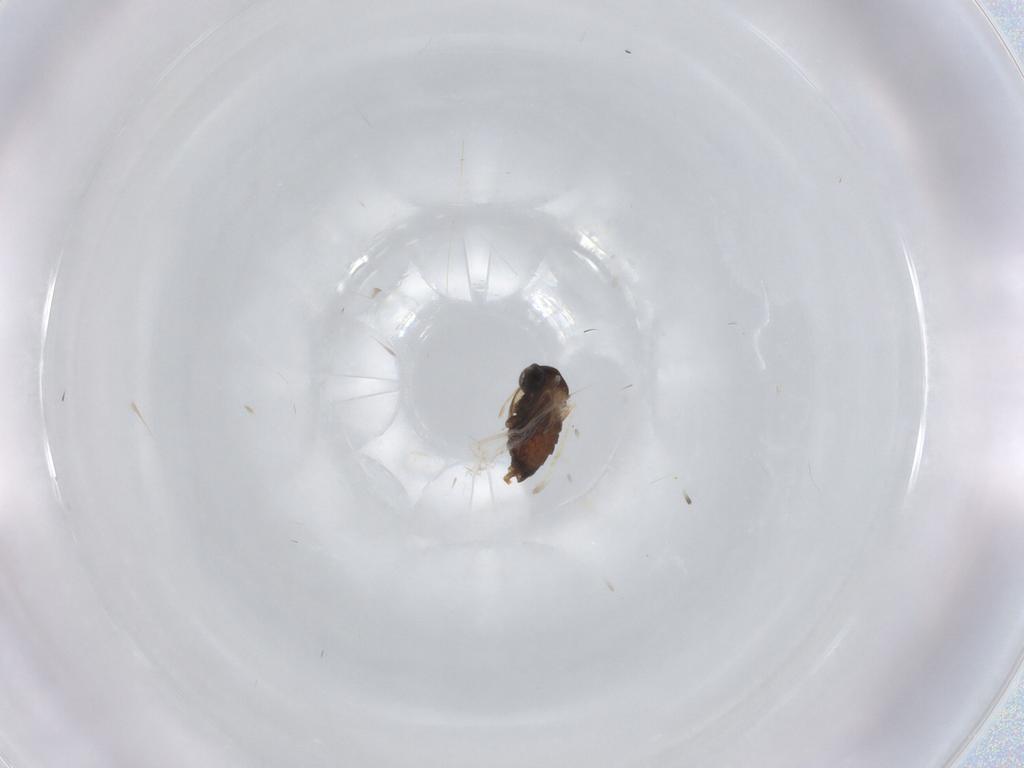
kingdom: Animalia
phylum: Arthropoda
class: Insecta
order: Diptera
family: Cecidomyiidae
